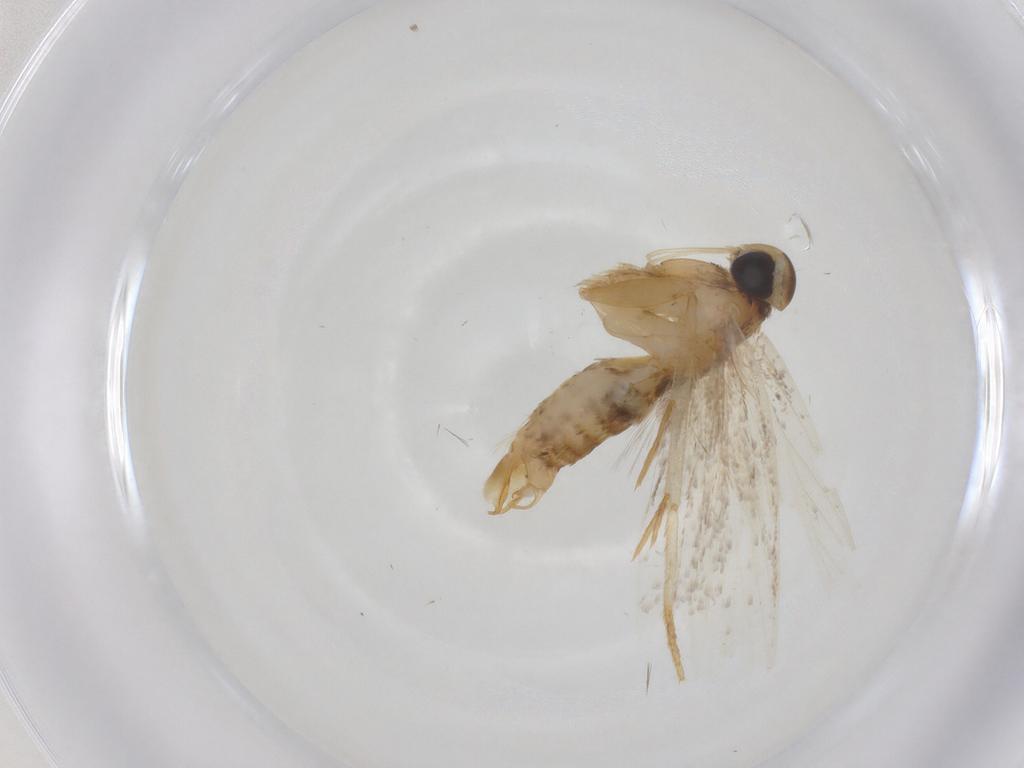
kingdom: Animalia
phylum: Arthropoda
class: Insecta
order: Lepidoptera
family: Oecophoridae
